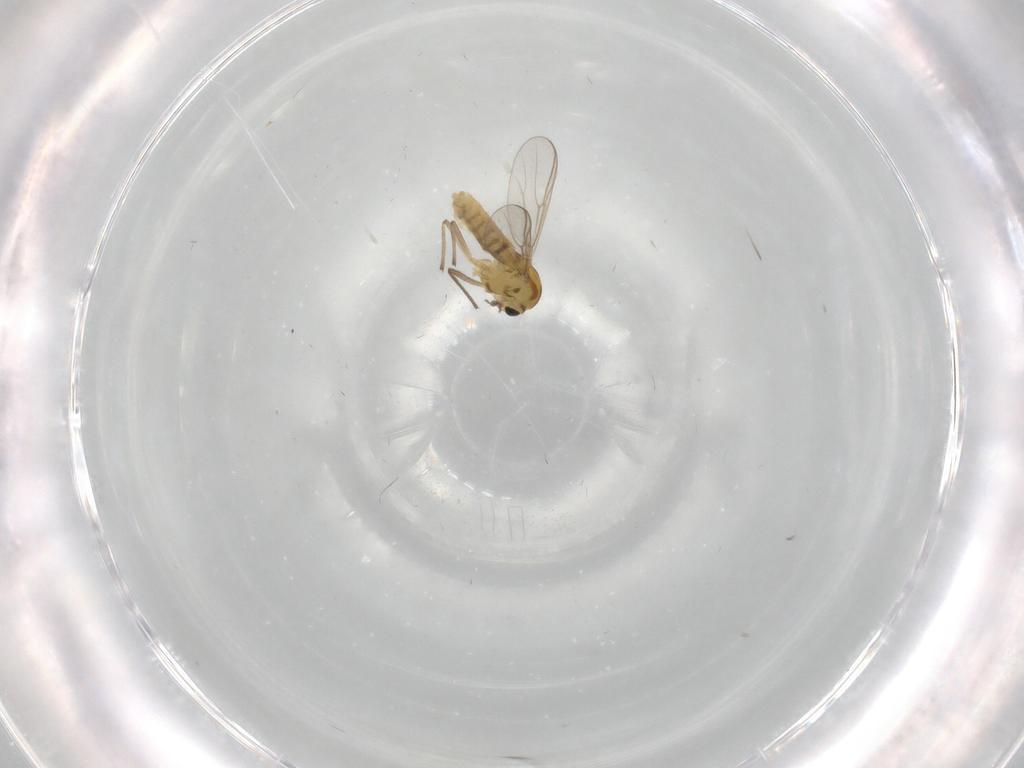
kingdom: Animalia
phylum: Arthropoda
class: Insecta
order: Diptera
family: Chironomidae
